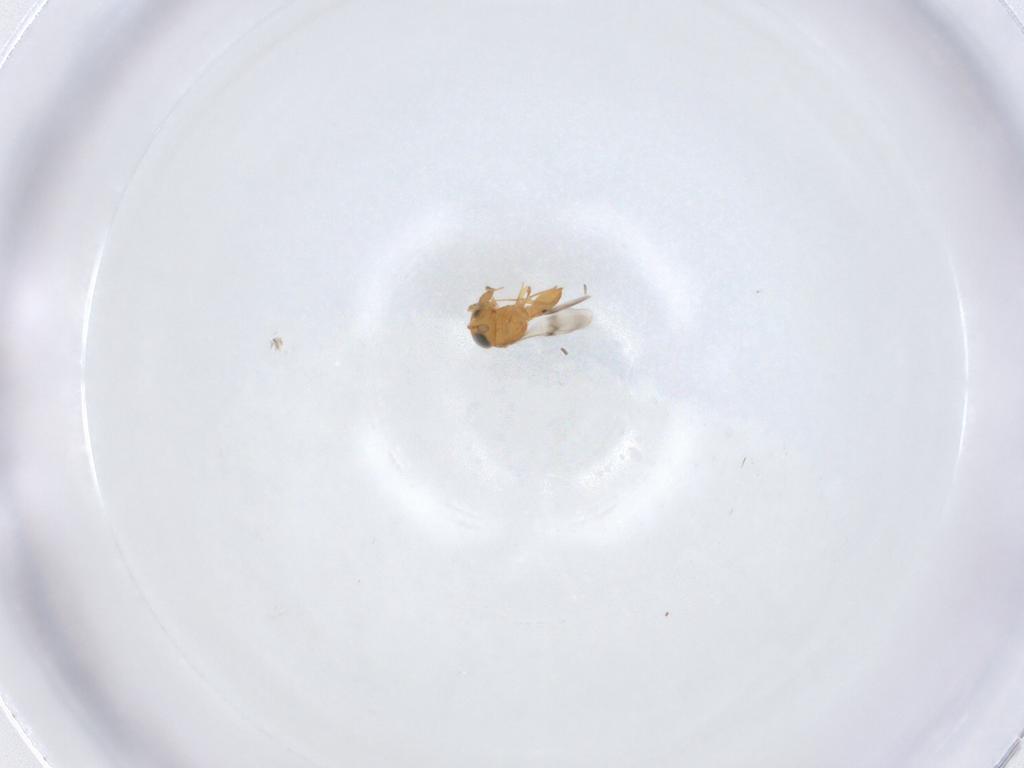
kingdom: Animalia
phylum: Arthropoda
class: Insecta
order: Hymenoptera
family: Scelionidae
